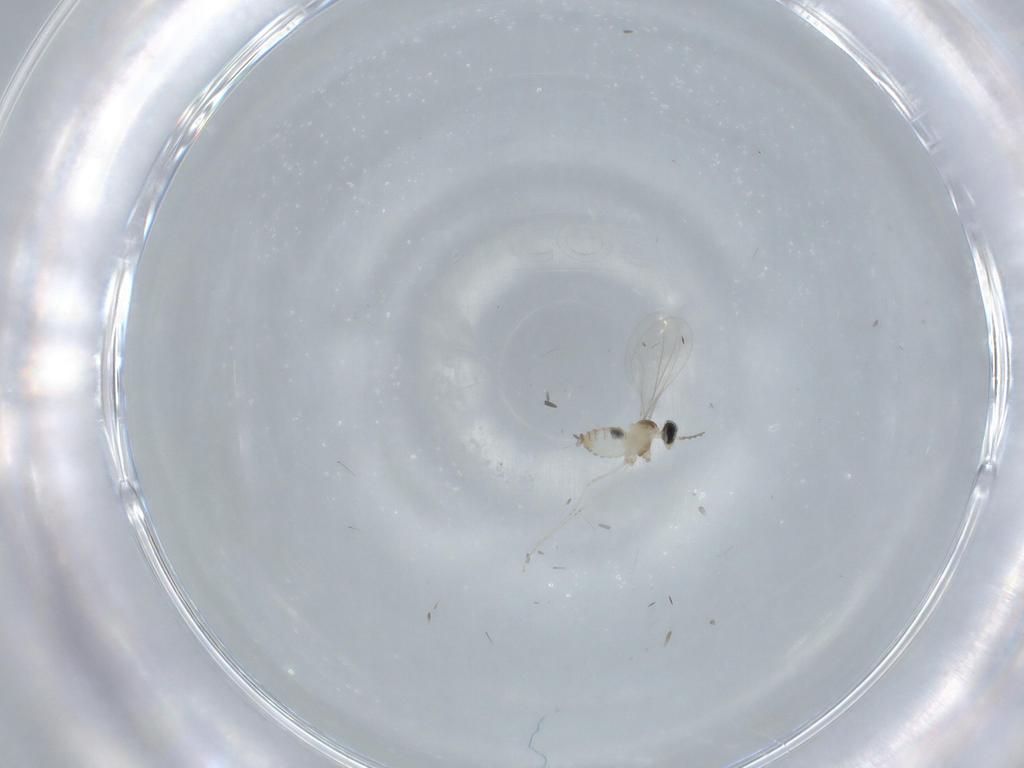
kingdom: Animalia
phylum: Arthropoda
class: Insecta
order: Diptera
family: Cecidomyiidae
